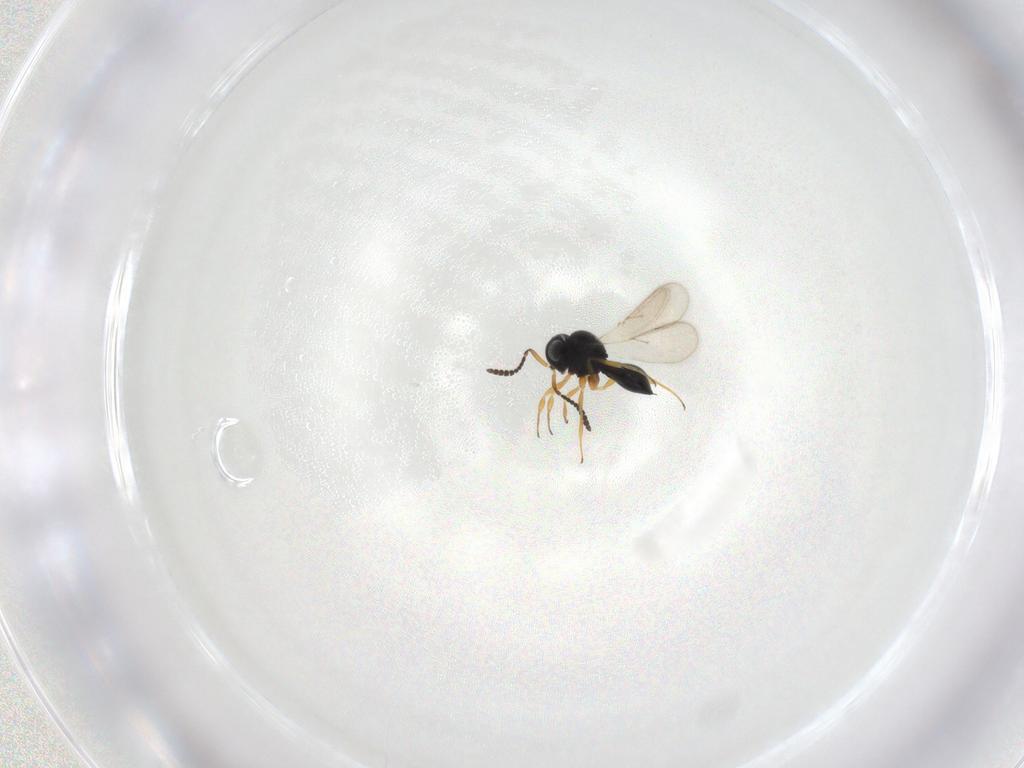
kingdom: Animalia
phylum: Arthropoda
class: Insecta
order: Hymenoptera
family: Scelionidae
